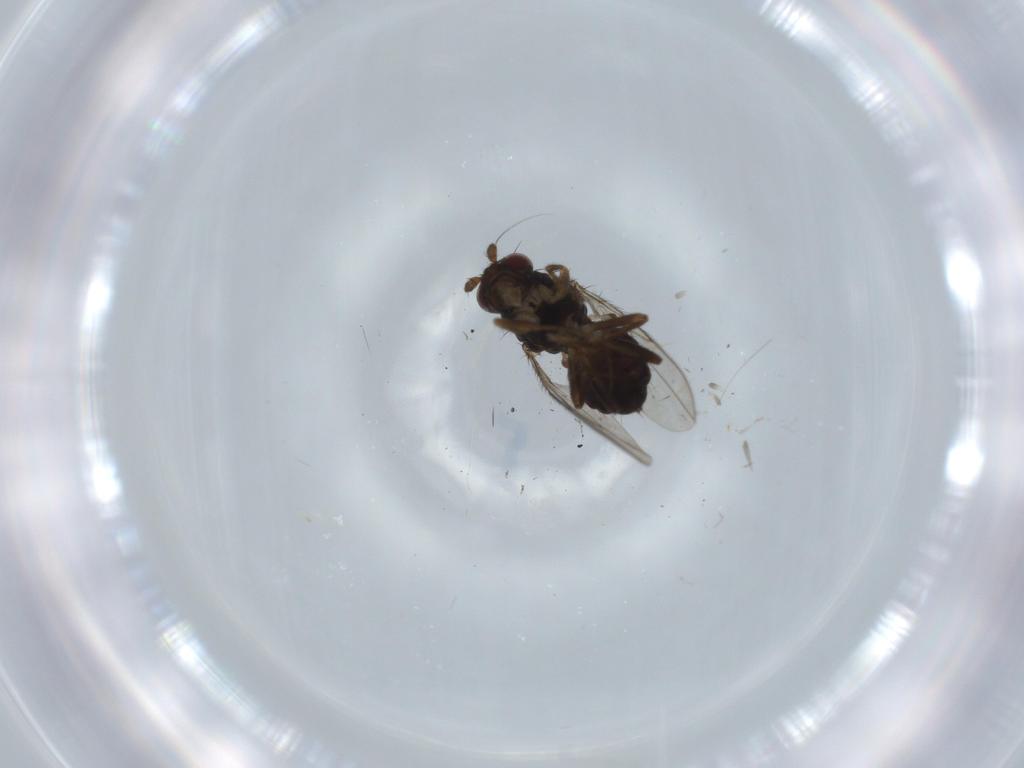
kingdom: Animalia
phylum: Arthropoda
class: Insecta
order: Diptera
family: Sphaeroceridae
